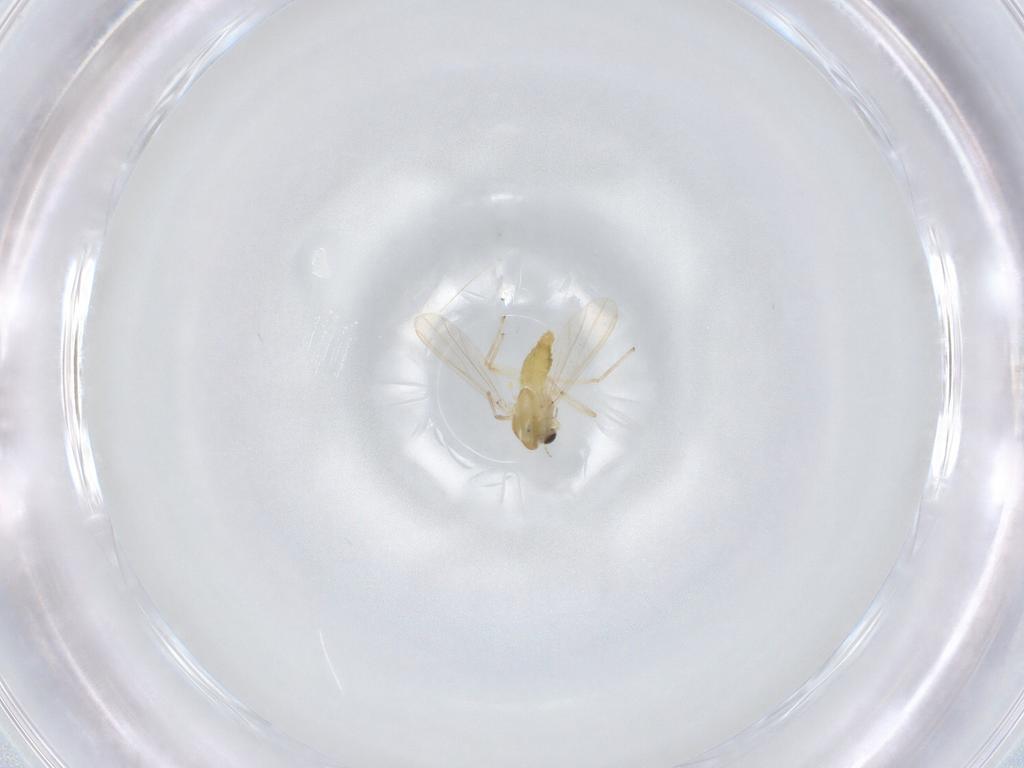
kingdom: Animalia
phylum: Arthropoda
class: Insecta
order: Diptera
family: Chironomidae
